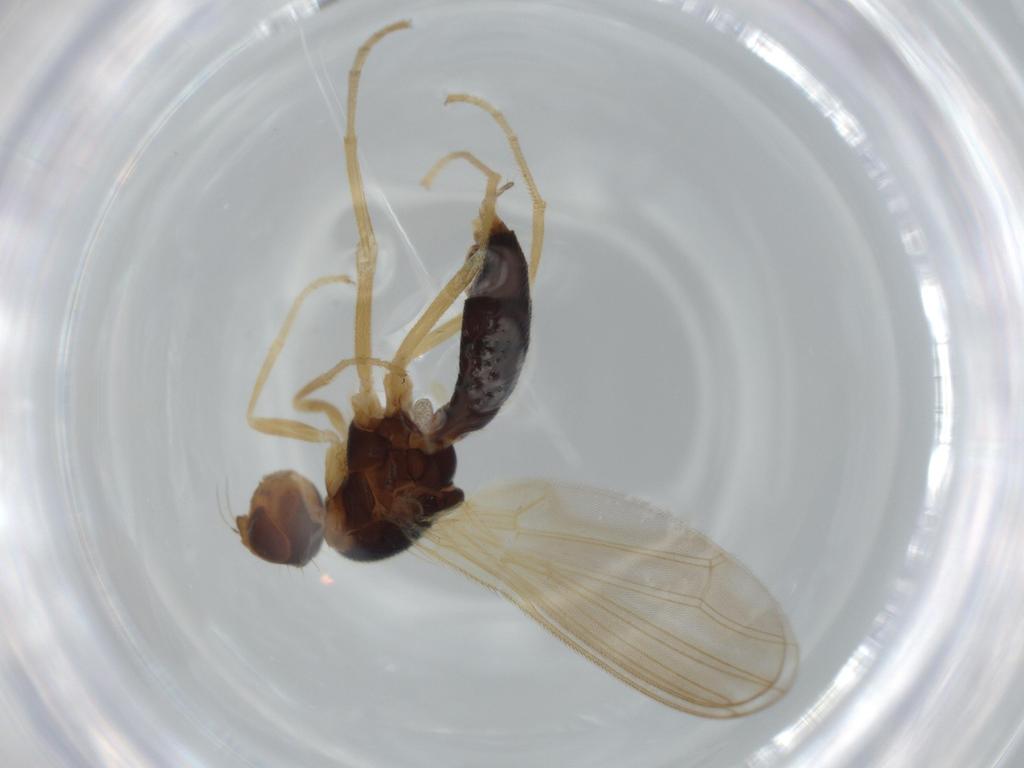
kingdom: Animalia
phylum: Arthropoda
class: Insecta
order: Diptera
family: Psilidae
